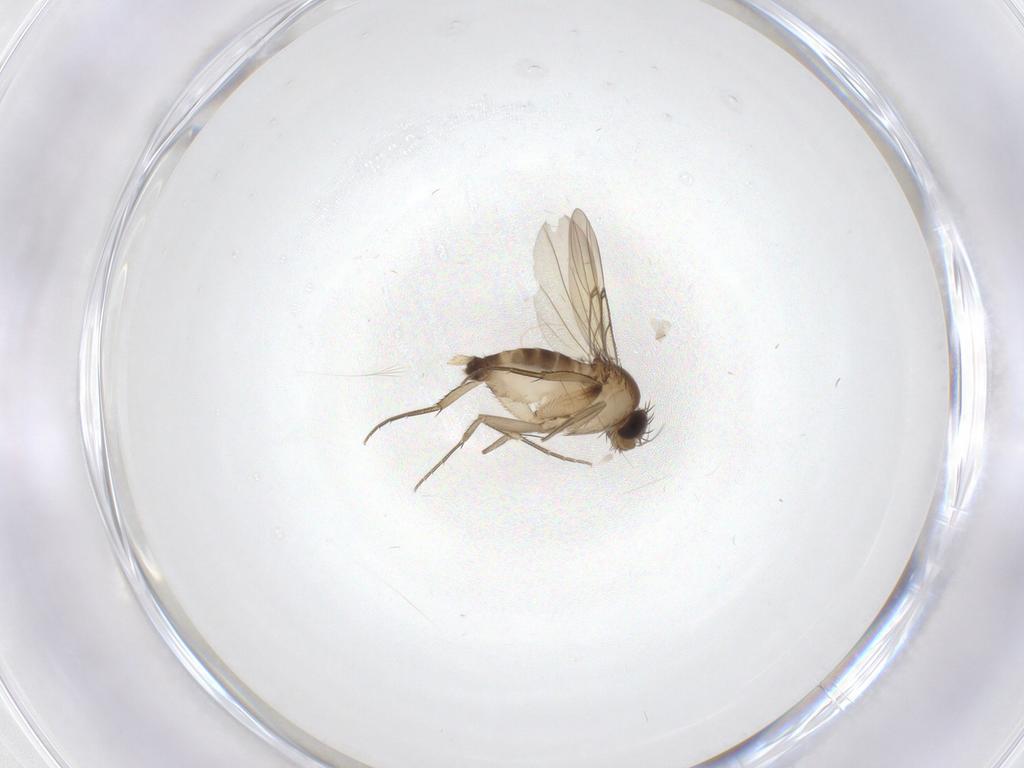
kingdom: Animalia
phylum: Arthropoda
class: Insecta
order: Diptera
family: Phoridae
